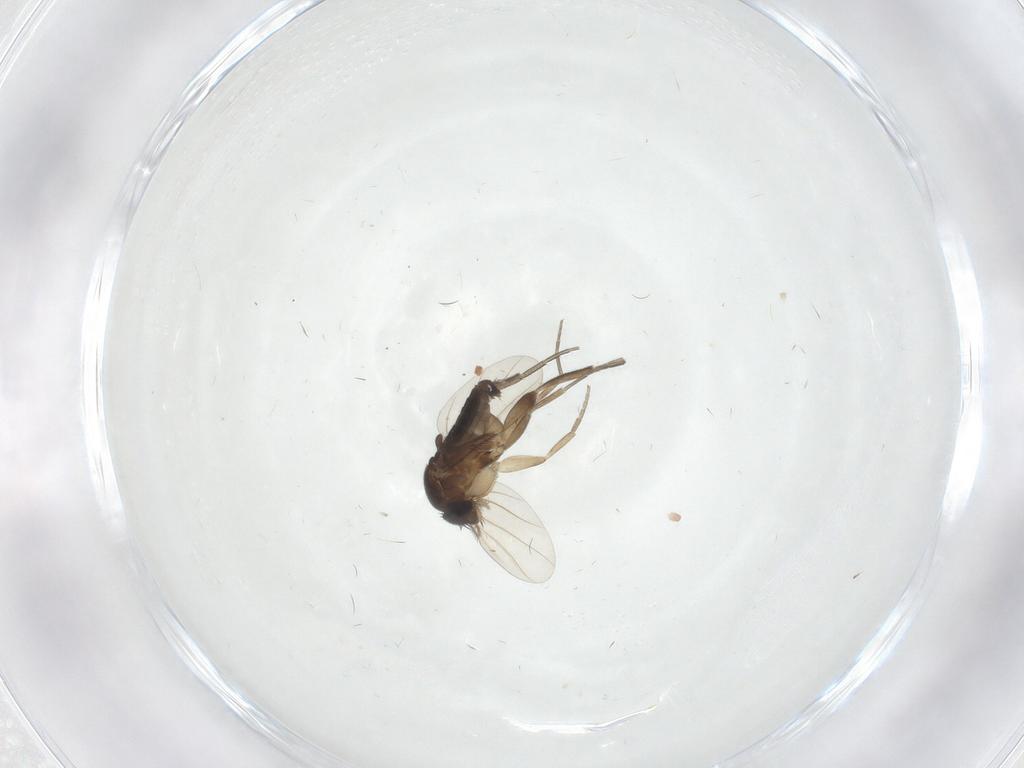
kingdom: Animalia
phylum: Arthropoda
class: Insecta
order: Diptera
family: Phoridae
